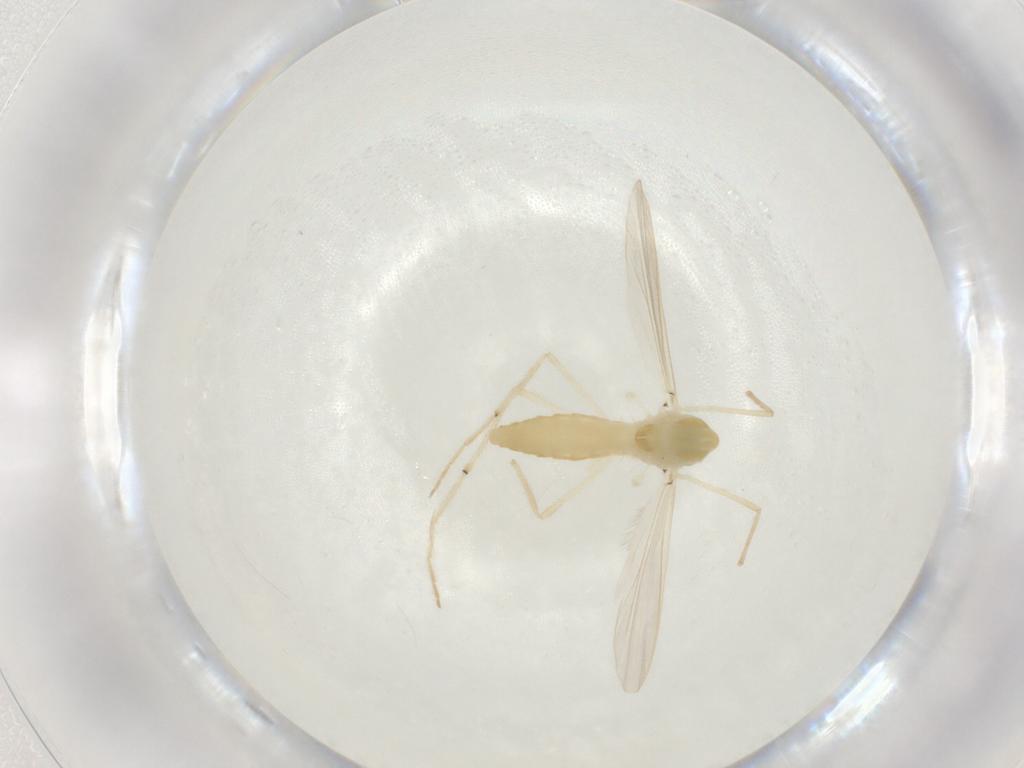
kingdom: Animalia
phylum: Arthropoda
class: Insecta
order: Diptera
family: Chironomidae
